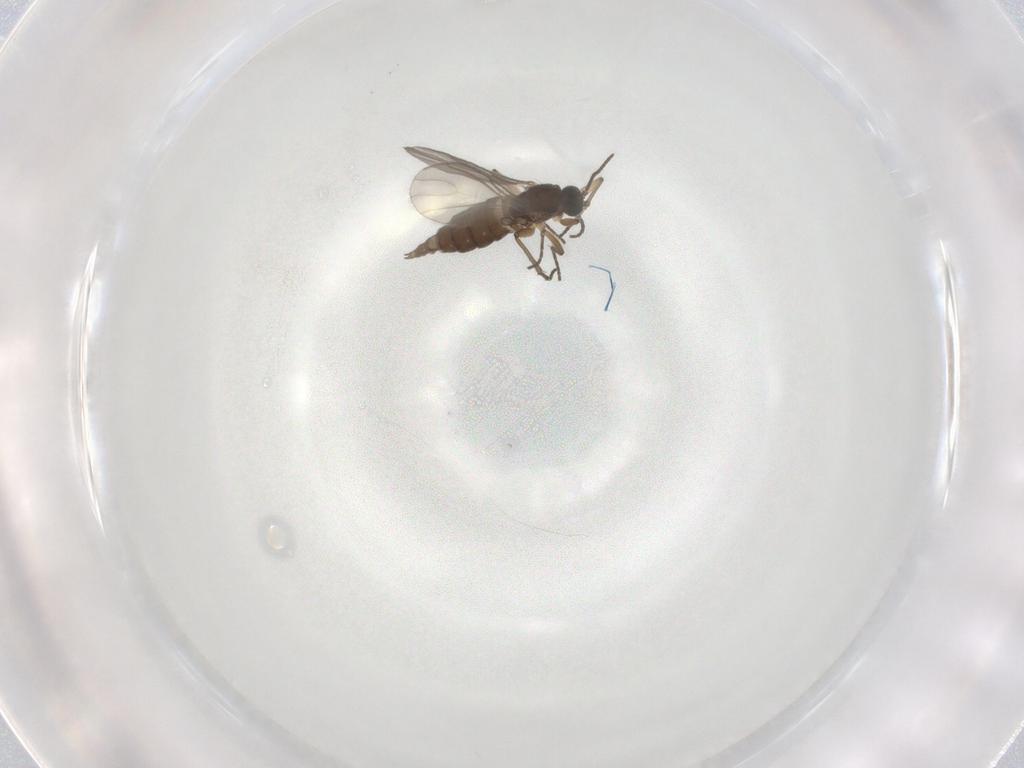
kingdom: Animalia
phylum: Arthropoda
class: Insecta
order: Diptera
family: Sciaridae
